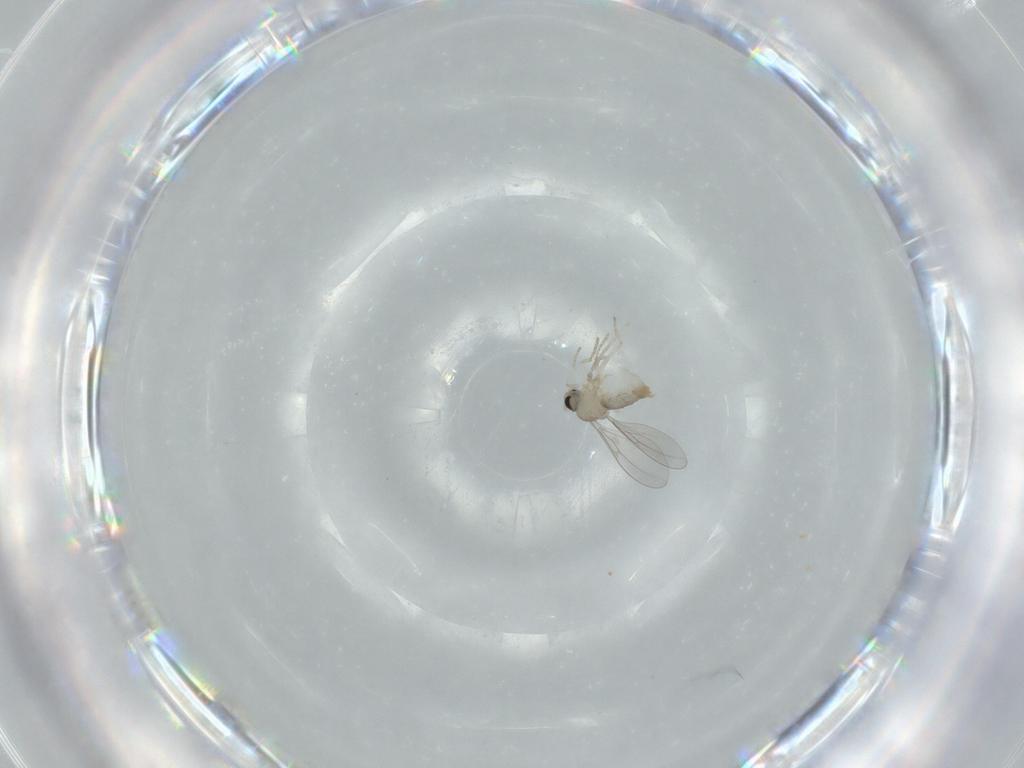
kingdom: Animalia
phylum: Arthropoda
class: Insecta
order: Diptera
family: Cecidomyiidae
